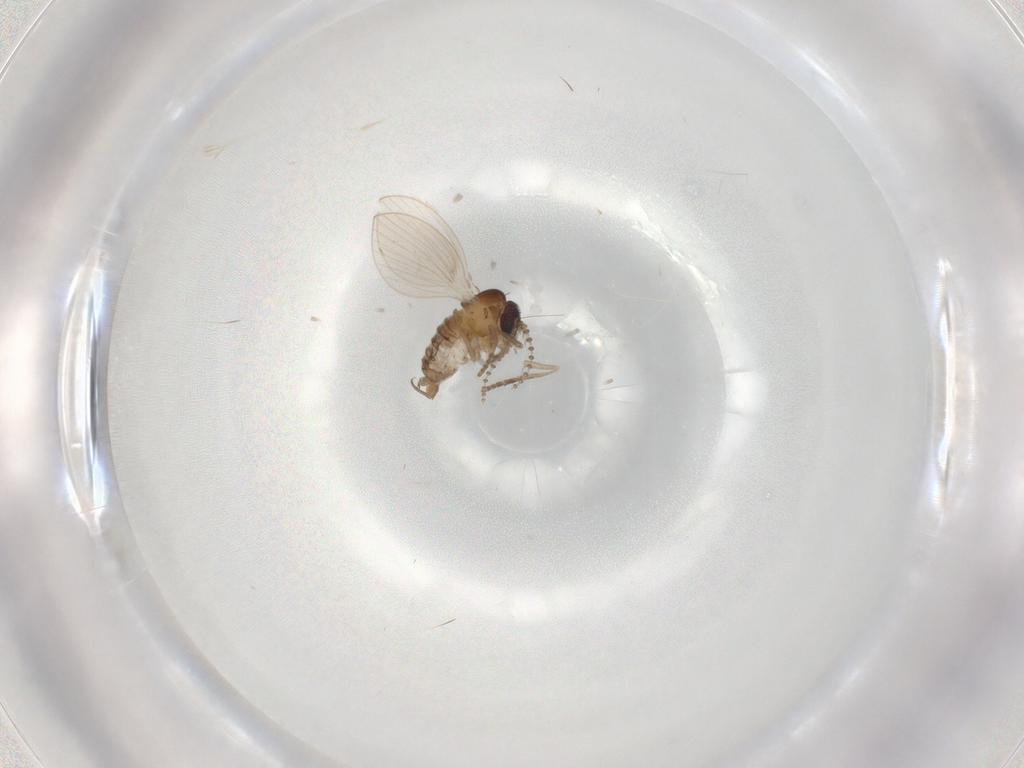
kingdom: Animalia
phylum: Arthropoda
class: Insecta
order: Diptera
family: Psychodidae
